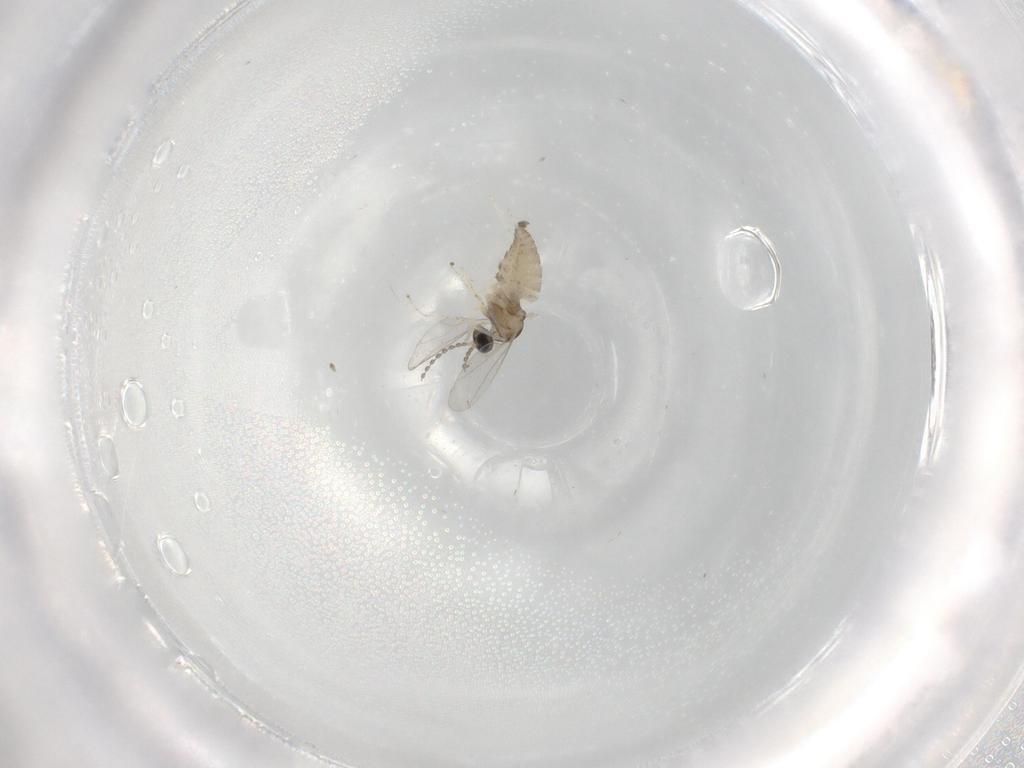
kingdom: Animalia
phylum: Arthropoda
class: Insecta
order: Diptera
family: Cecidomyiidae
